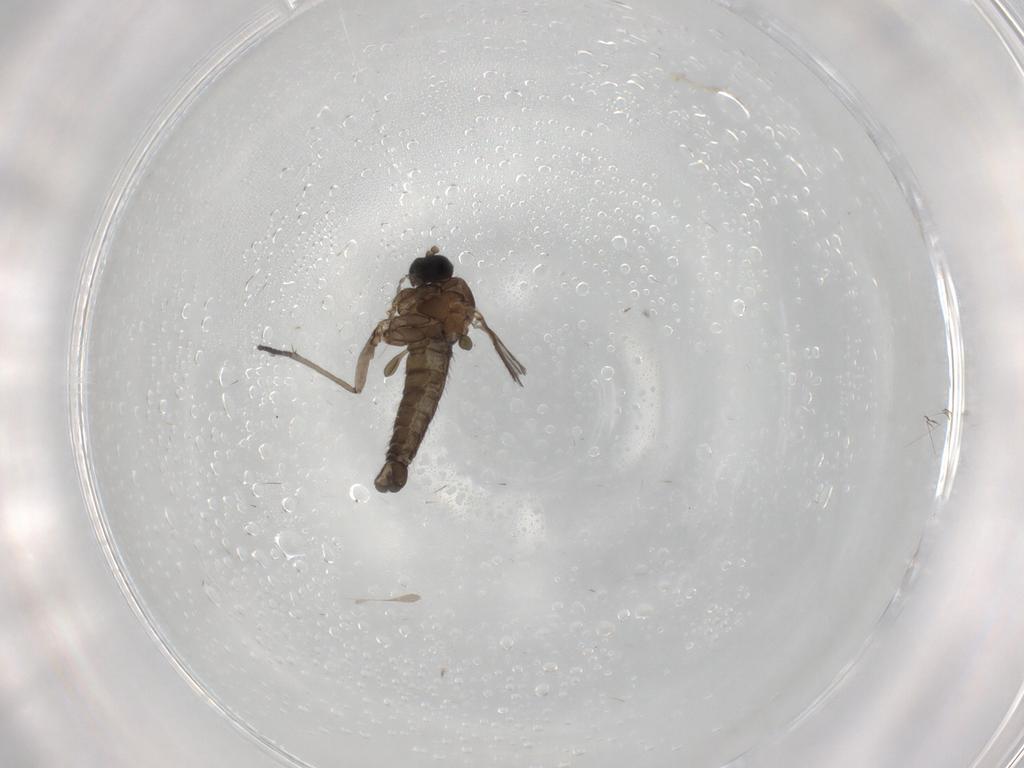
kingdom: Animalia
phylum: Arthropoda
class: Insecta
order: Diptera
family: Sciaridae
